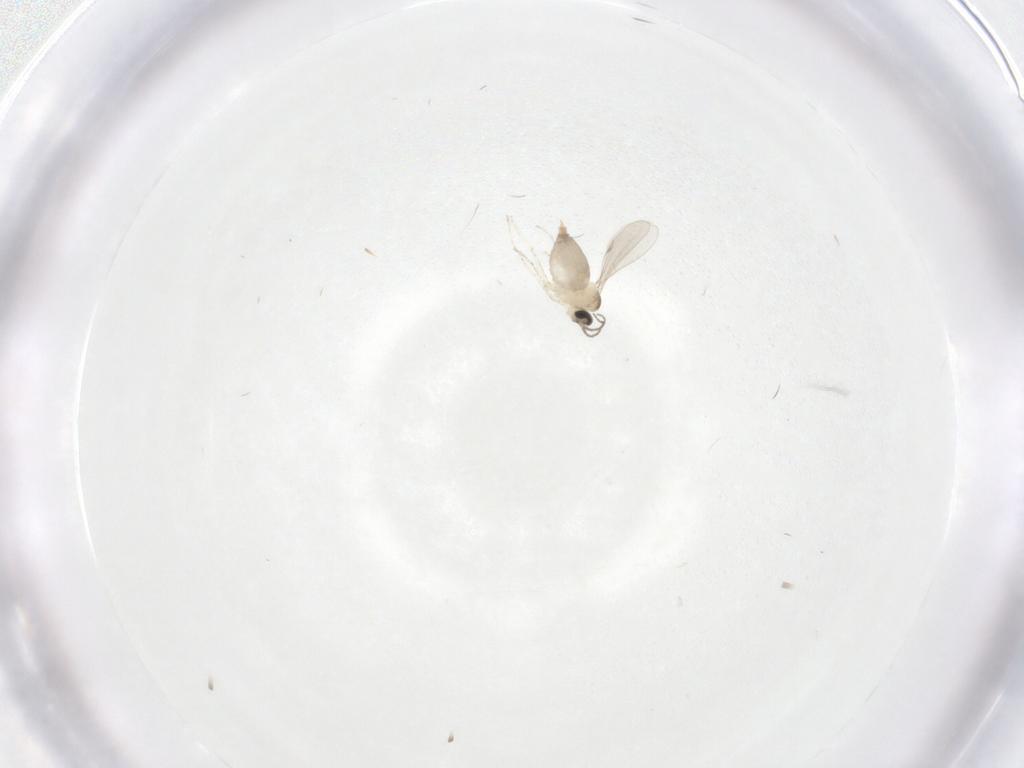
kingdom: Animalia
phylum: Arthropoda
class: Insecta
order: Diptera
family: Cecidomyiidae
